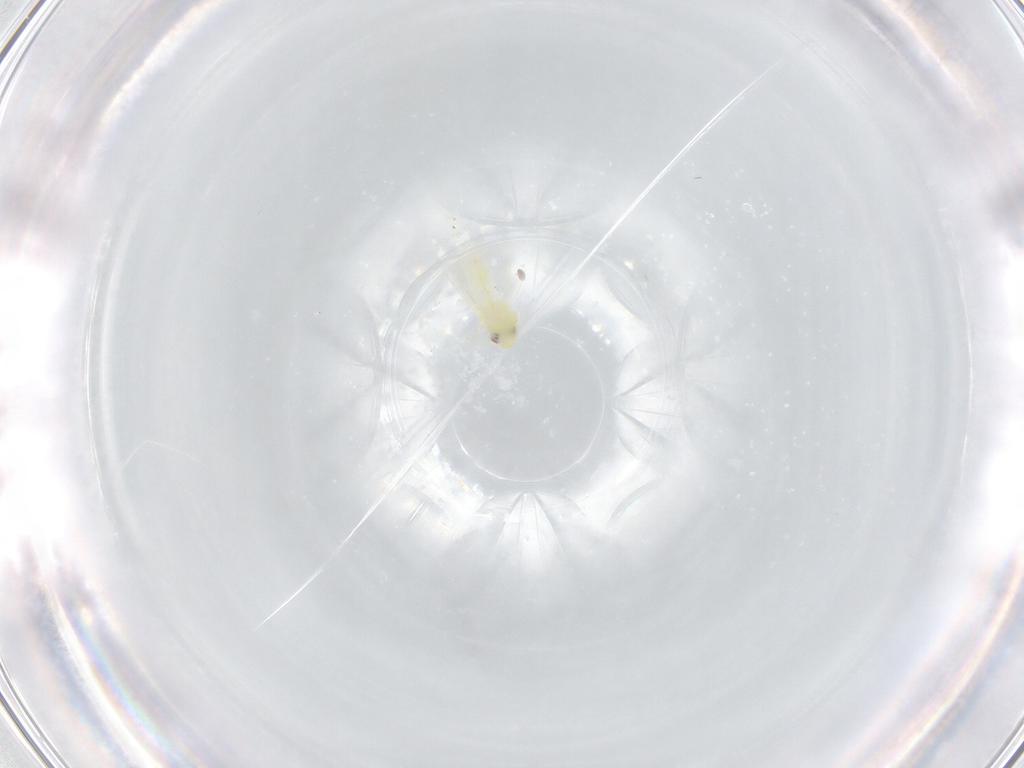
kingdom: Animalia
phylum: Arthropoda
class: Insecta
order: Hemiptera
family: Aleyrodidae
